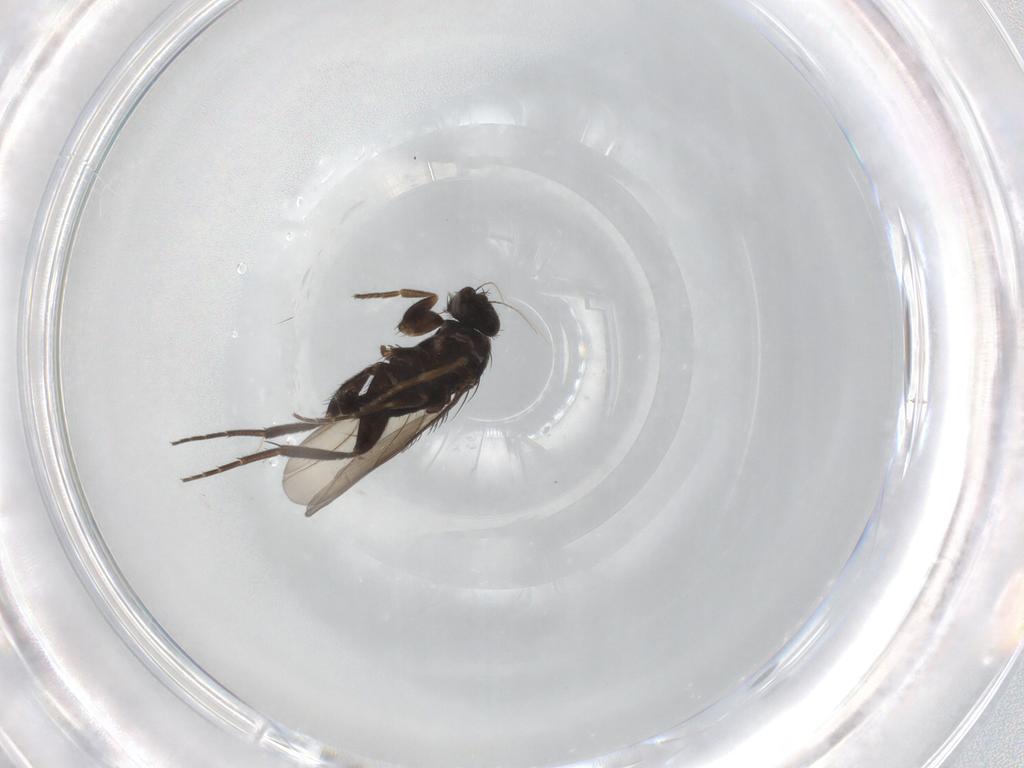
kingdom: Animalia
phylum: Arthropoda
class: Insecta
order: Diptera
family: Phoridae
